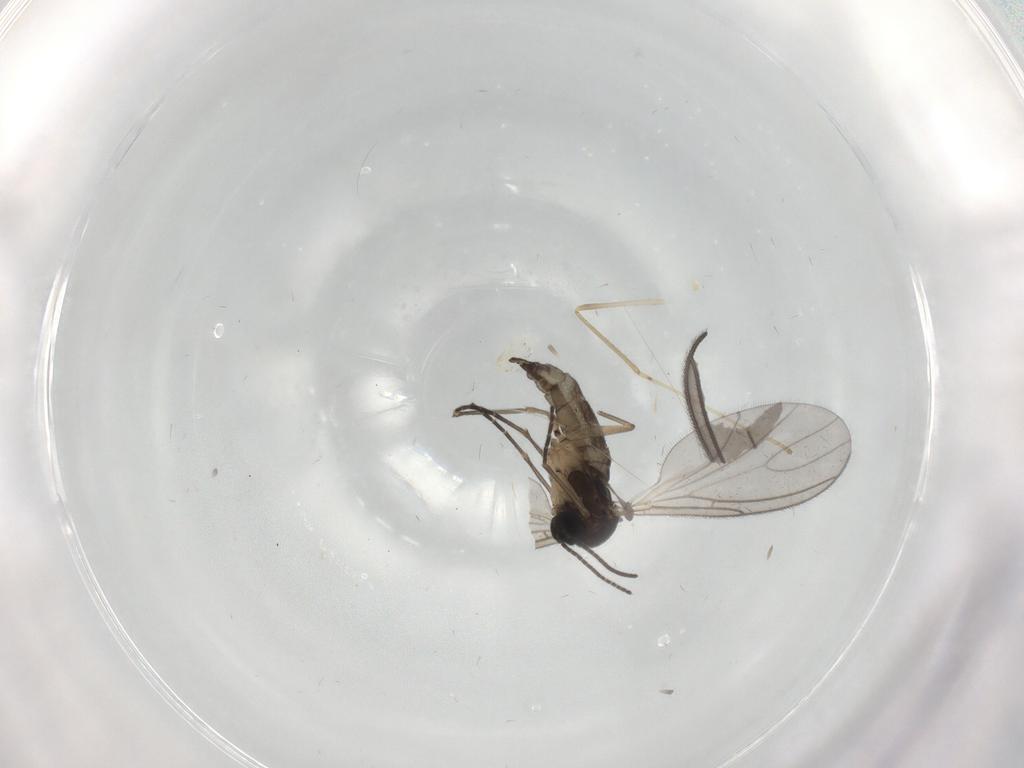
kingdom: Animalia
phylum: Arthropoda
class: Insecta
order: Diptera
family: Sciaridae
